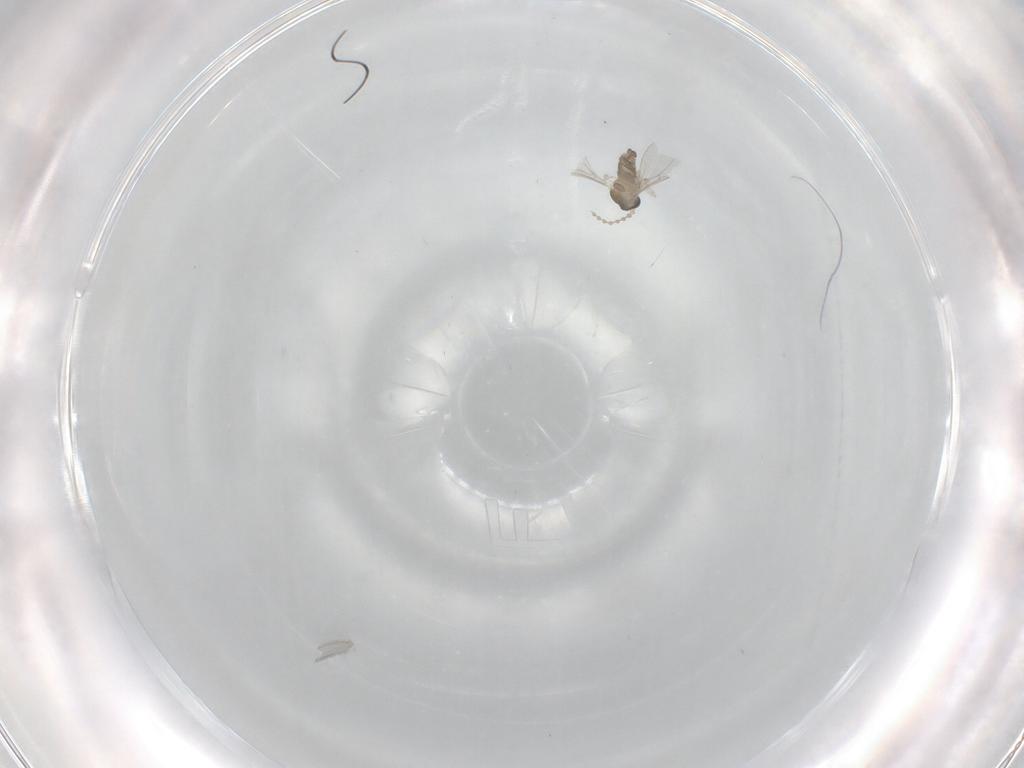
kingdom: Animalia
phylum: Arthropoda
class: Insecta
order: Diptera
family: Cecidomyiidae
